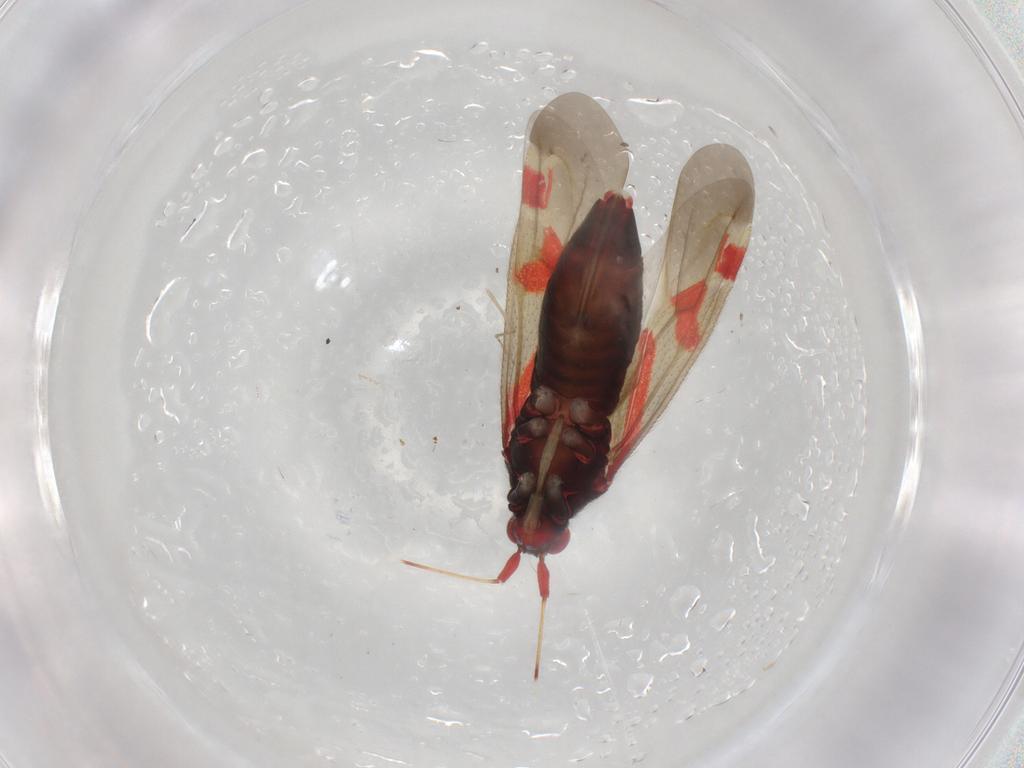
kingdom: Animalia
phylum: Arthropoda
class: Insecta
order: Hemiptera
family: Miridae
